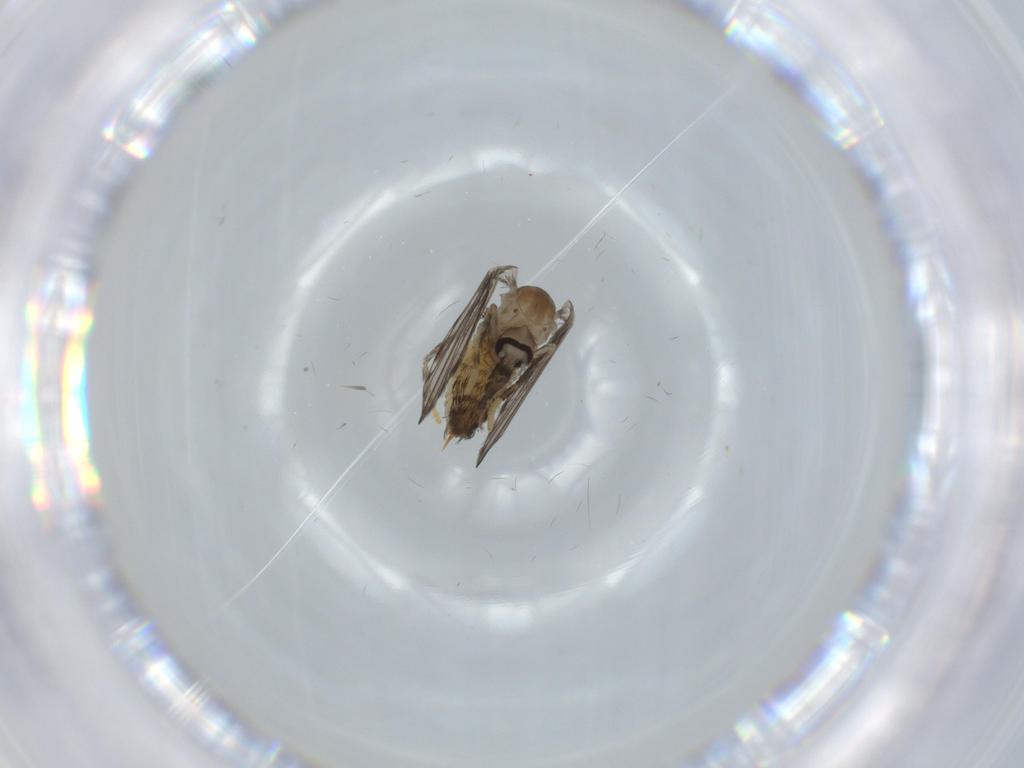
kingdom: Animalia
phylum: Arthropoda
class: Insecta
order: Diptera
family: Psychodidae
